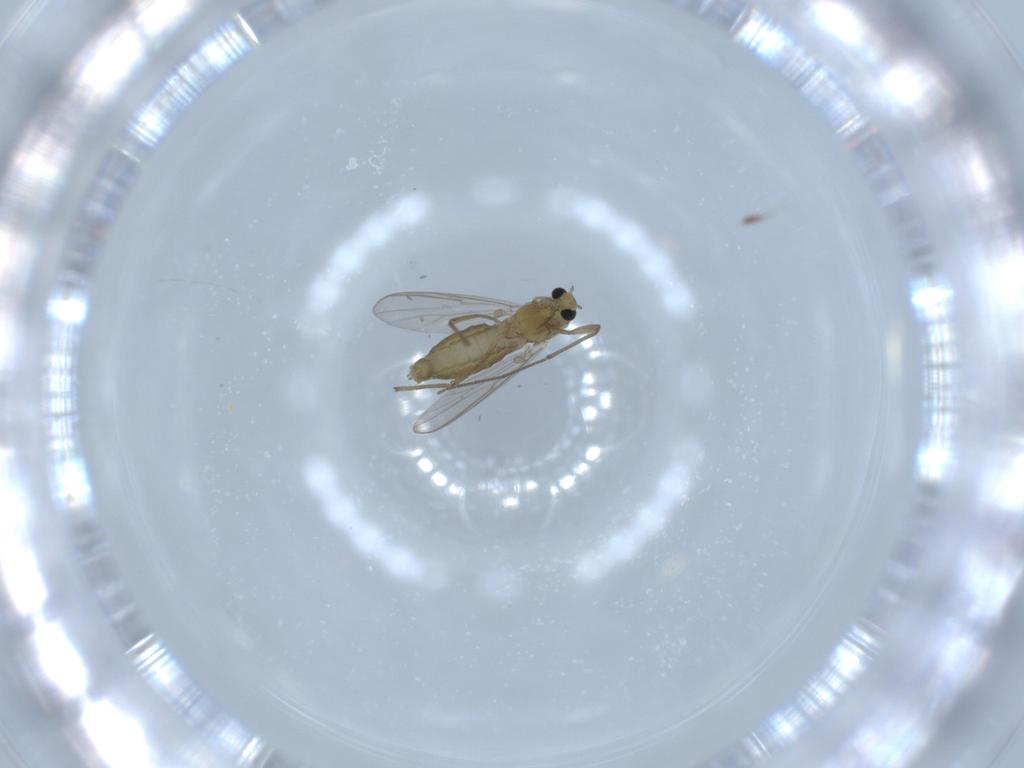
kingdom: Animalia
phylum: Arthropoda
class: Insecta
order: Diptera
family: Chironomidae
